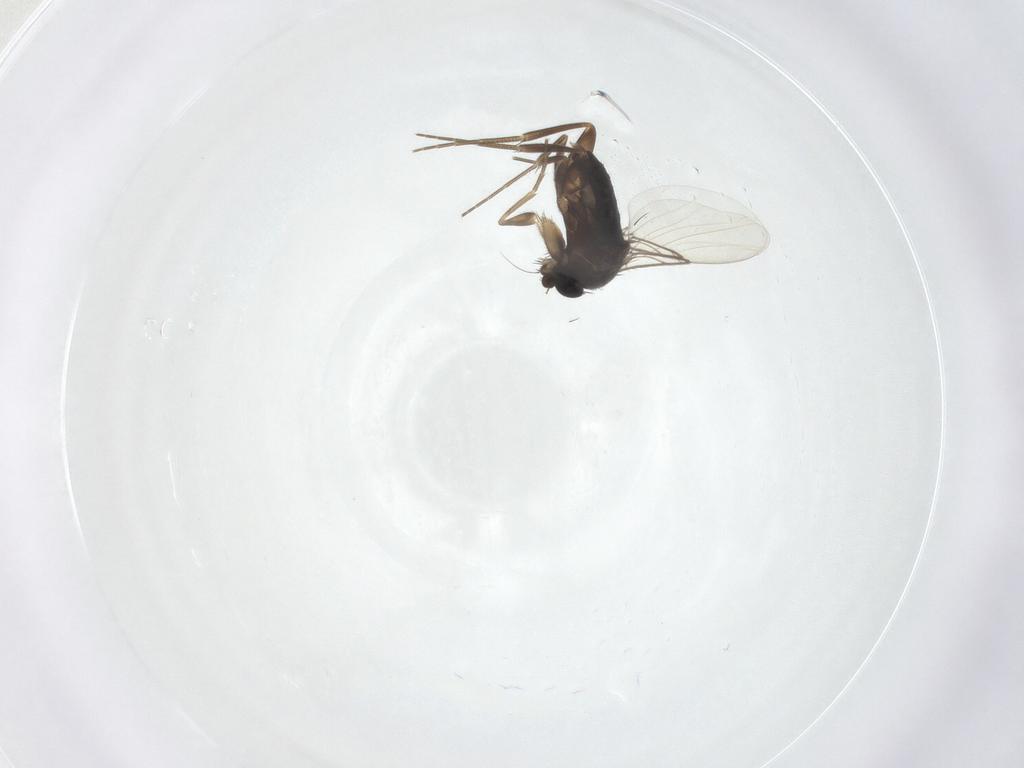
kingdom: Animalia
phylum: Arthropoda
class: Insecta
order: Diptera
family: Phoridae
